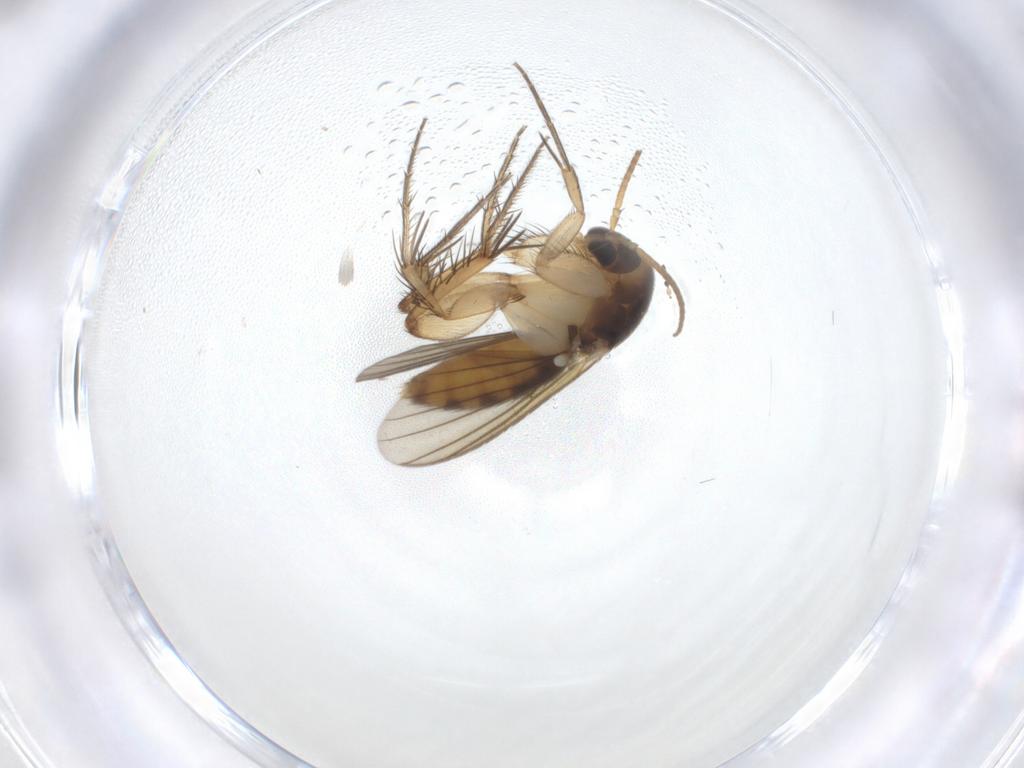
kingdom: Animalia
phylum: Arthropoda
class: Insecta
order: Diptera
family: Mycetophilidae
